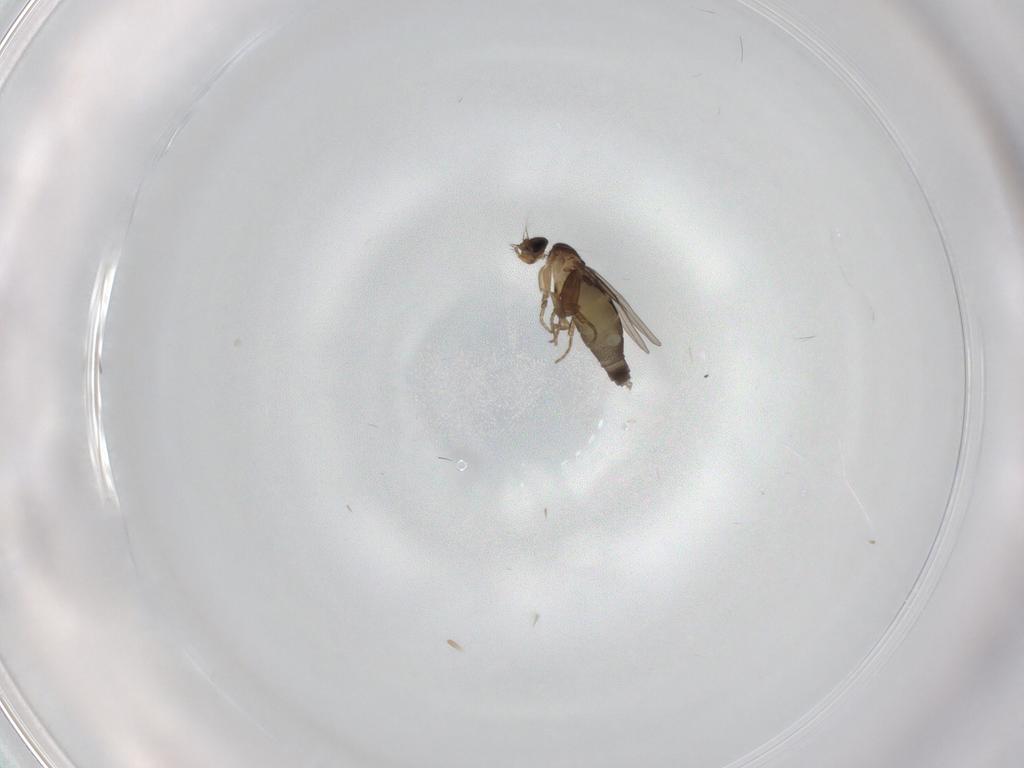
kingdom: Animalia
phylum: Arthropoda
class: Insecta
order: Diptera
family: Phoridae
